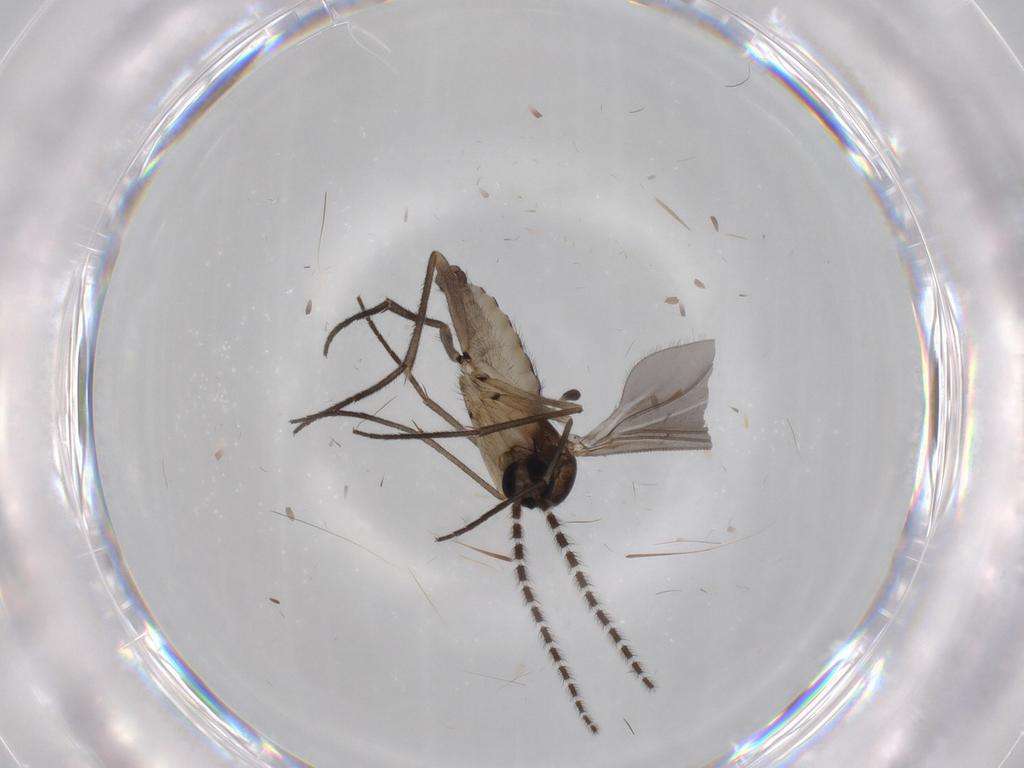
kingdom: Animalia
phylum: Arthropoda
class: Insecta
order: Diptera
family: Sciaridae
